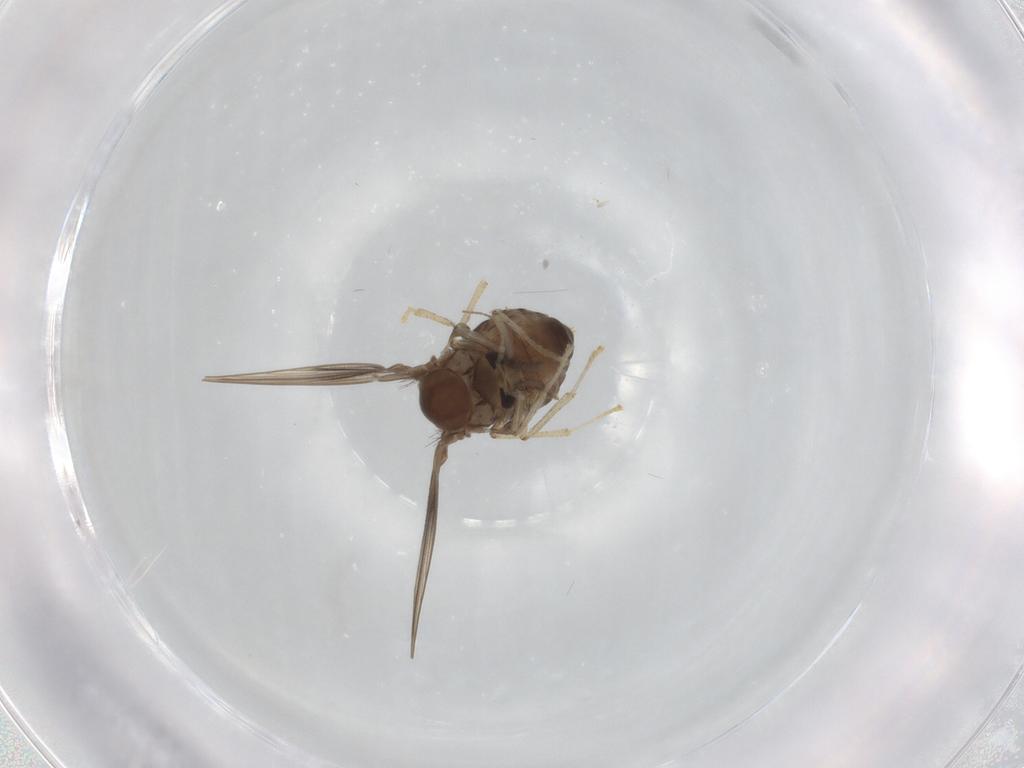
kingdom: Animalia
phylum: Arthropoda
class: Insecta
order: Diptera
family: Psychodidae
